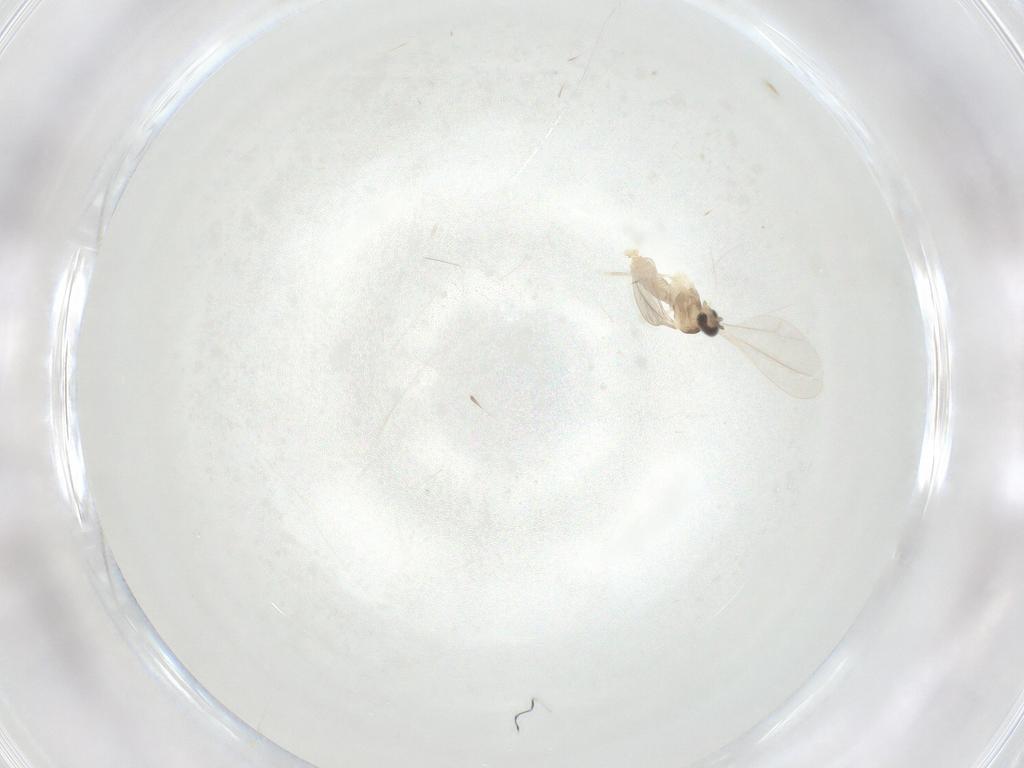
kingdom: Animalia
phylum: Arthropoda
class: Insecta
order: Diptera
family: Cecidomyiidae
